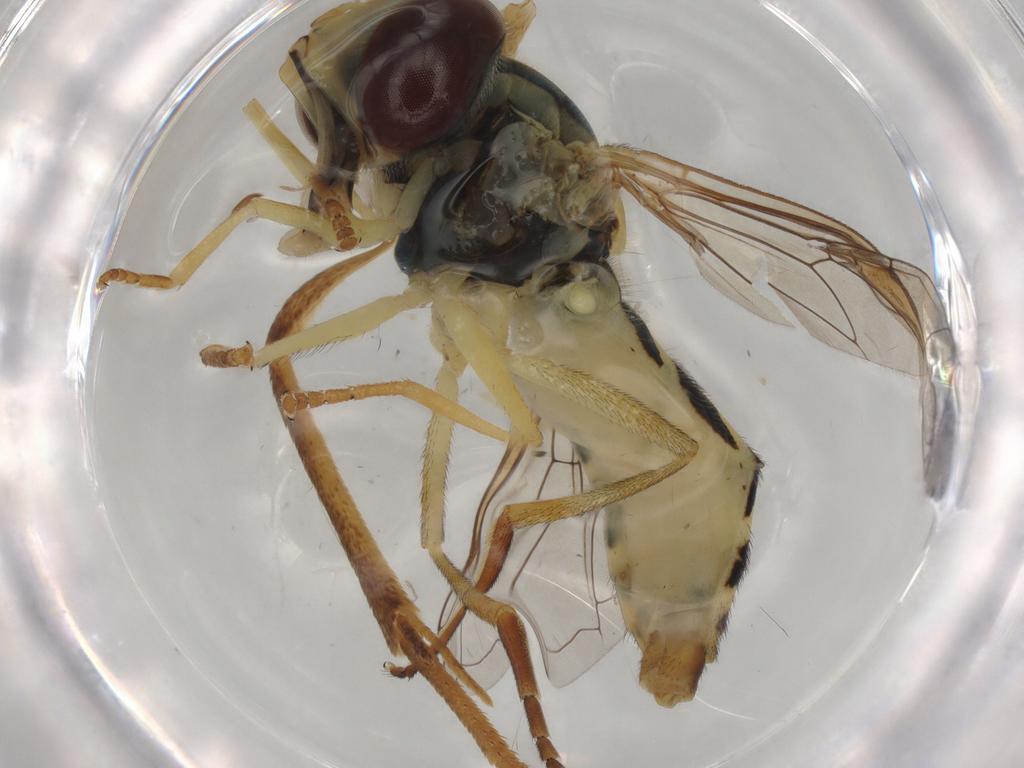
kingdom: Animalia
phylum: Arthropoda
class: Insecta
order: Diptera
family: Syrphidae
